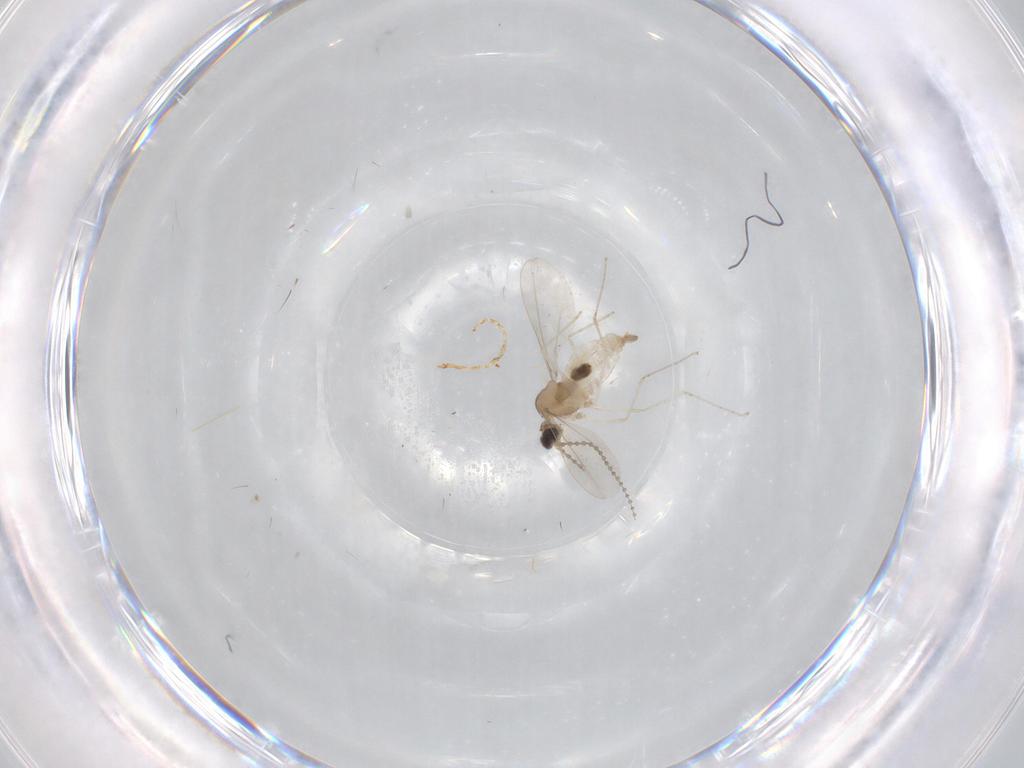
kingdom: Animalia
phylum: Arthropoda
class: Insecta
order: Diptera
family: Cecidomyiidae
